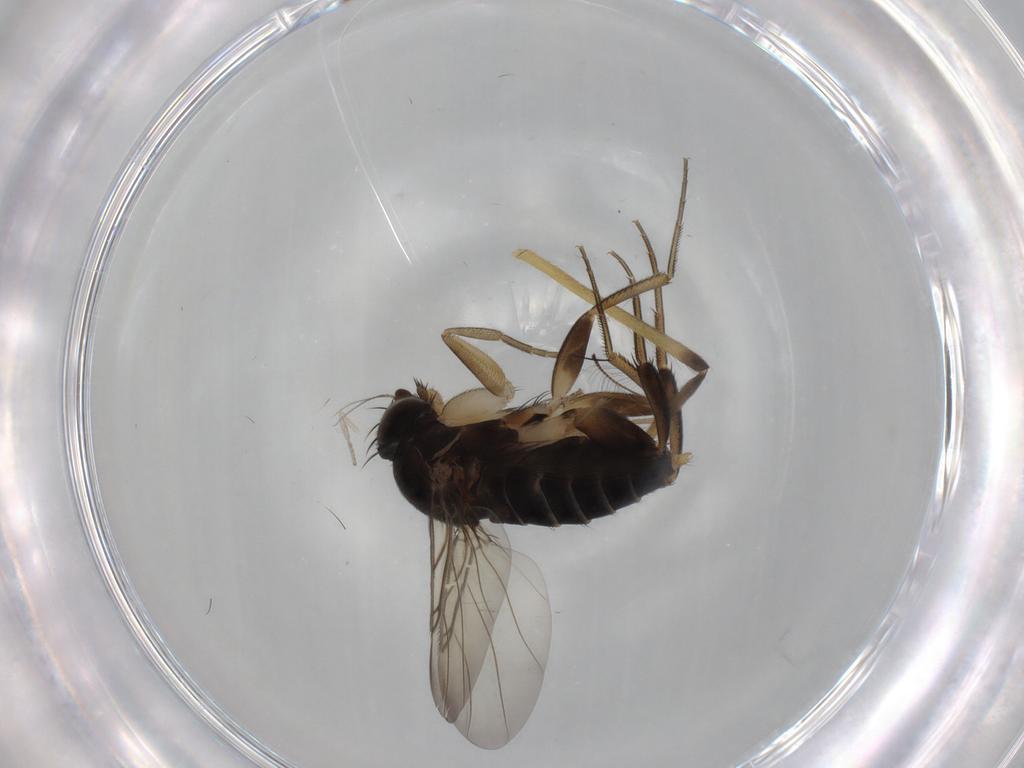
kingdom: Animalia
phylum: Arthropoda
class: Insecta
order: Diptera
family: Phoridae
